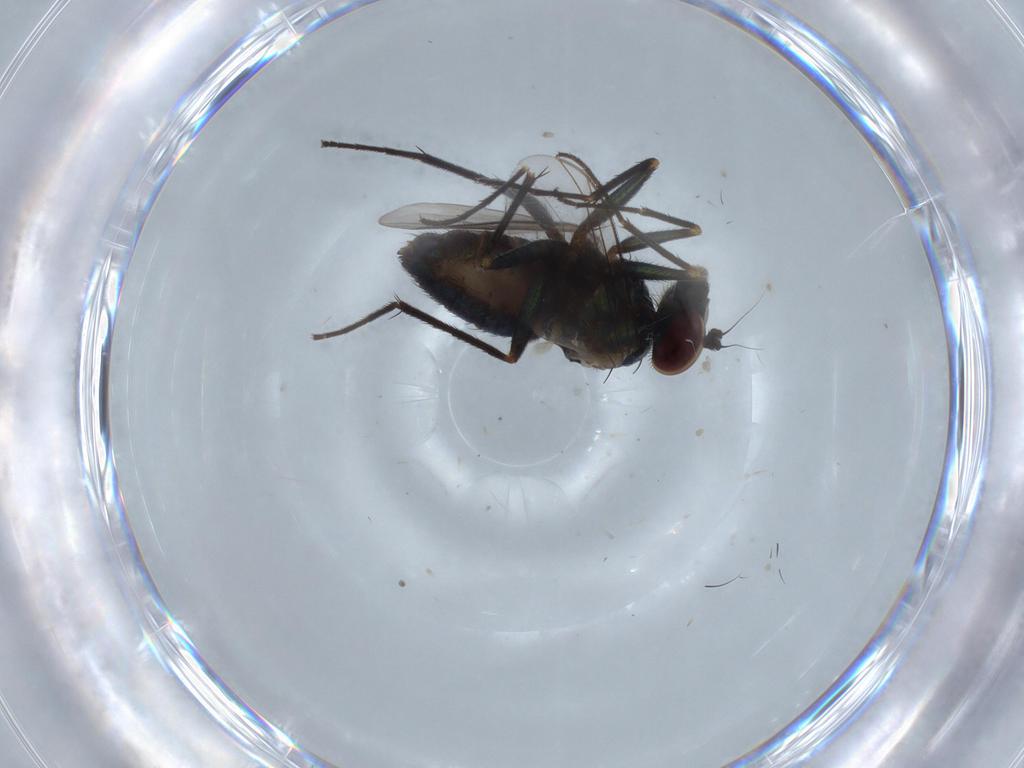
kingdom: Animalia
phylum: Arthropoda
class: Insecta
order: Diptera
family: Dolichopodidae
